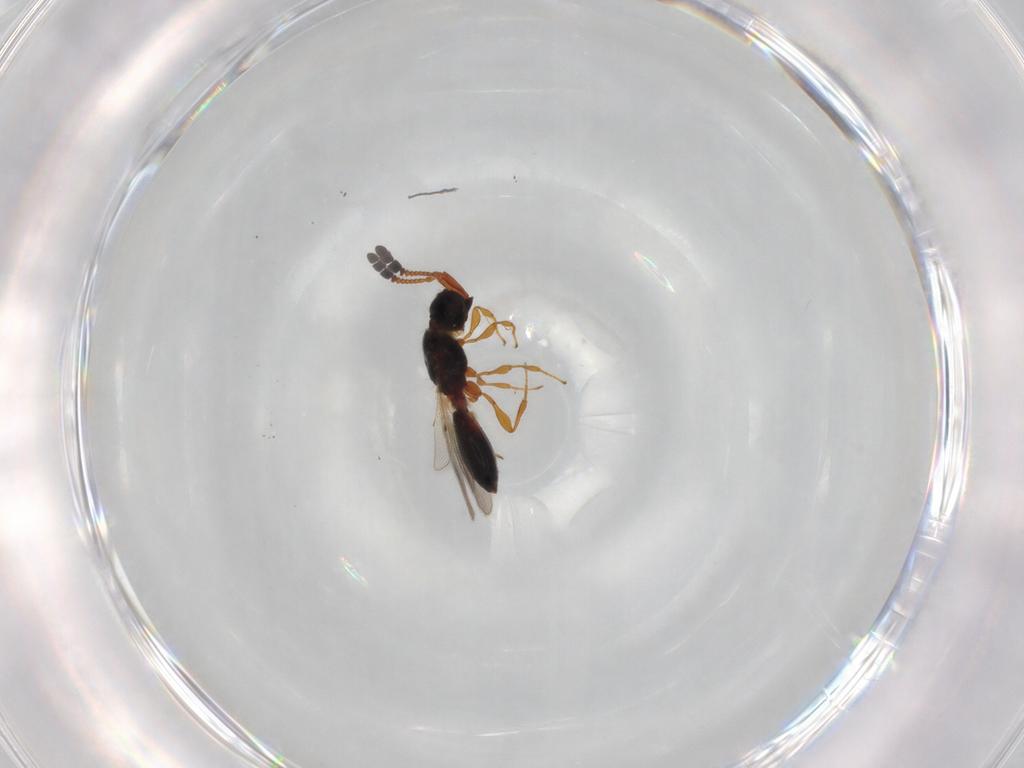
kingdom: Animalia
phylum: Arthropoda
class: Insecta
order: Hymenoptera
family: Diapriidae
